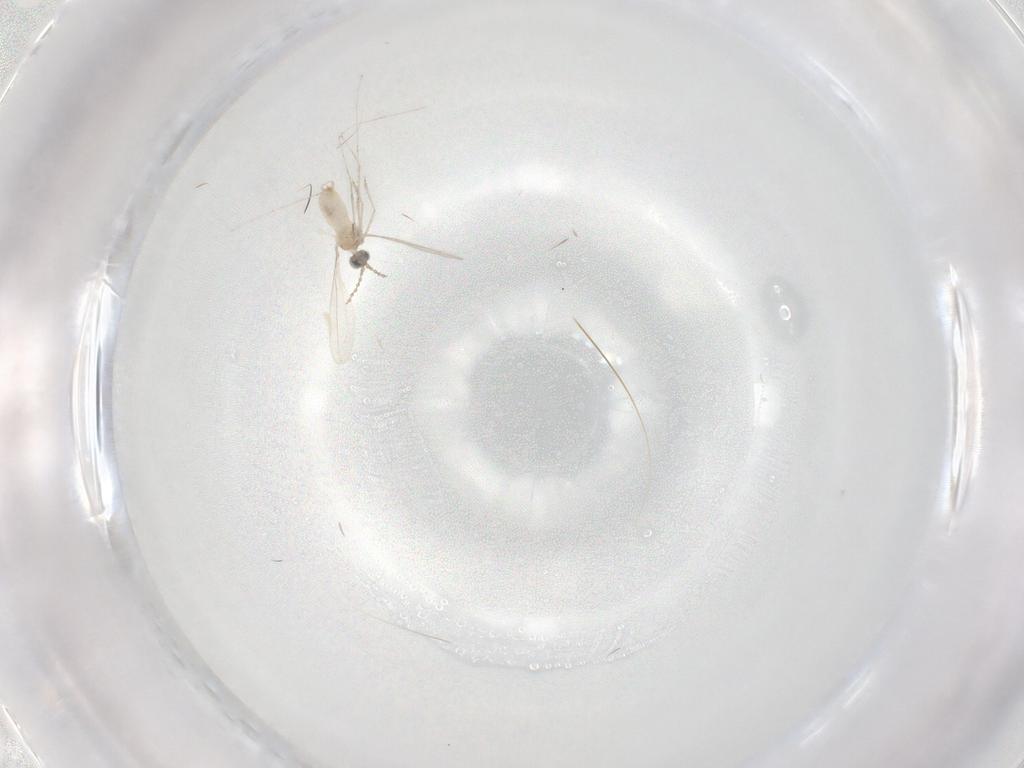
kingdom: Animalia
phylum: Arthropoda
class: Insecta
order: Diptera
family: Cecidomyiidae
